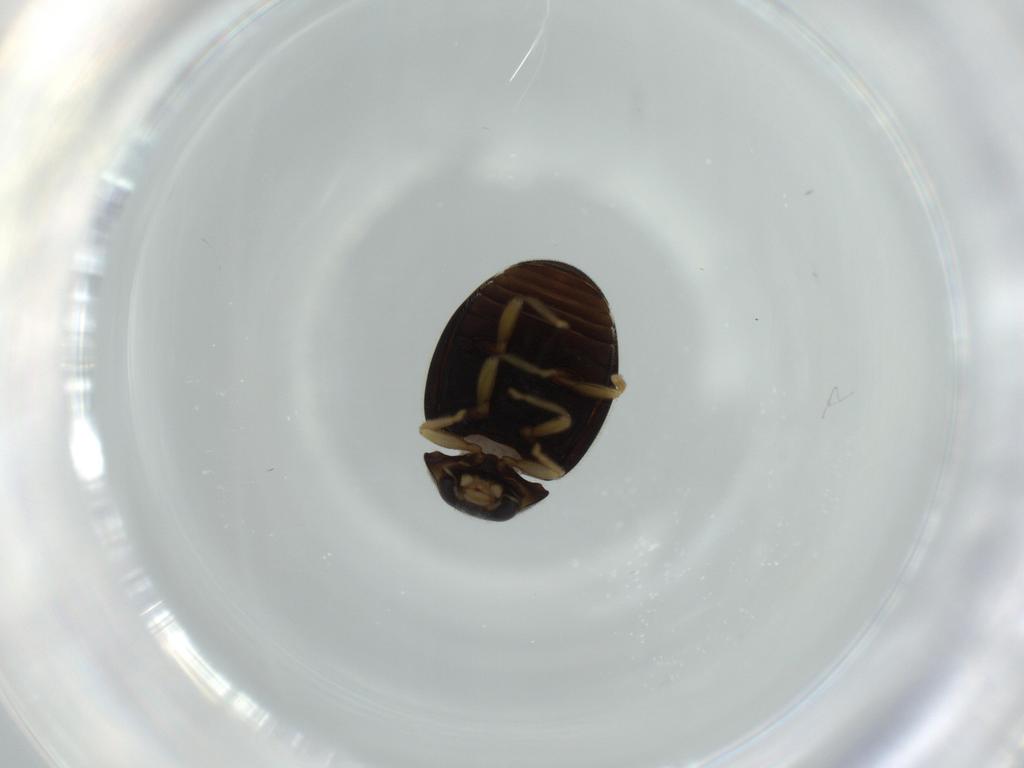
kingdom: Animalia
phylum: Arthropoda
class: Insecta
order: Coleoptera
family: Coccinellidae
